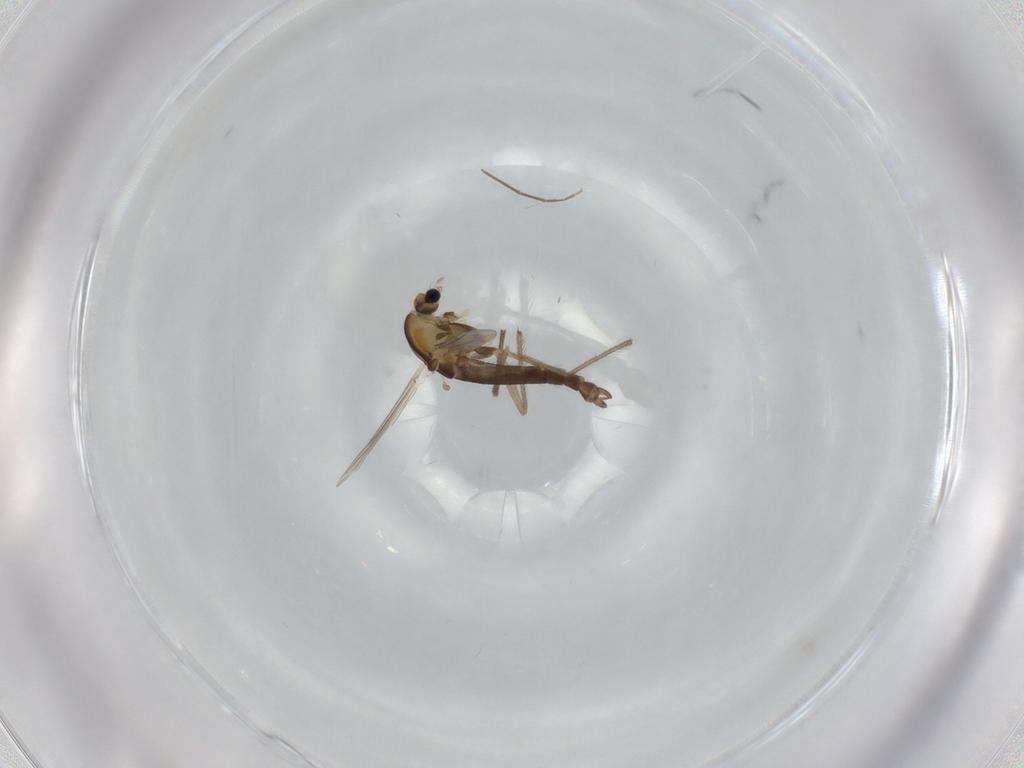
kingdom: Animalia
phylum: Arthropoda
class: Insecta
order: Diptera
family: Chironomidae
